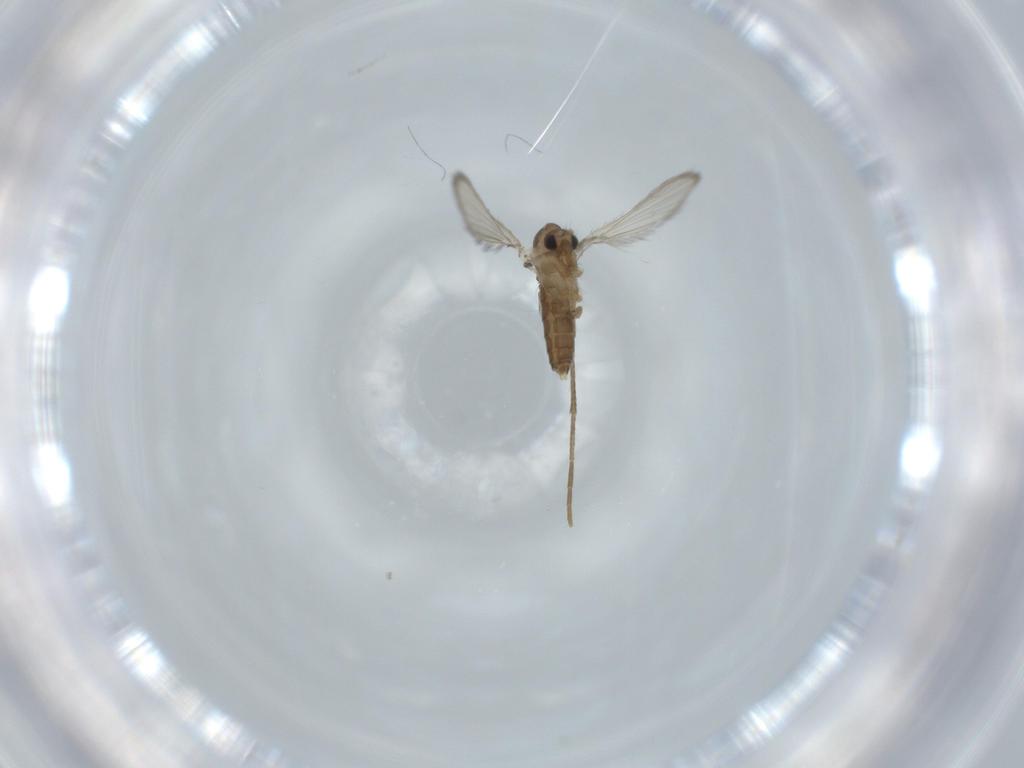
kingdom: Animalia
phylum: Arthropoda
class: Insecta
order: Diptera
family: Psychodidae
